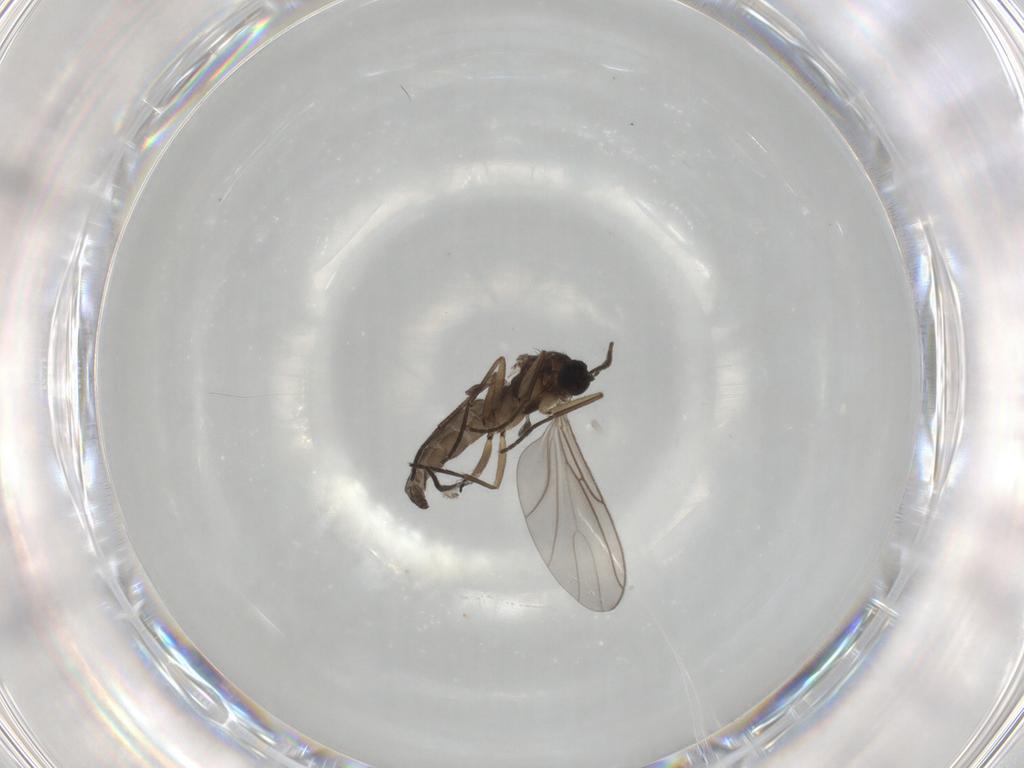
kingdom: Animalia
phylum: Arthropoda
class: Insecta
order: Diptera
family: Sciaridae
